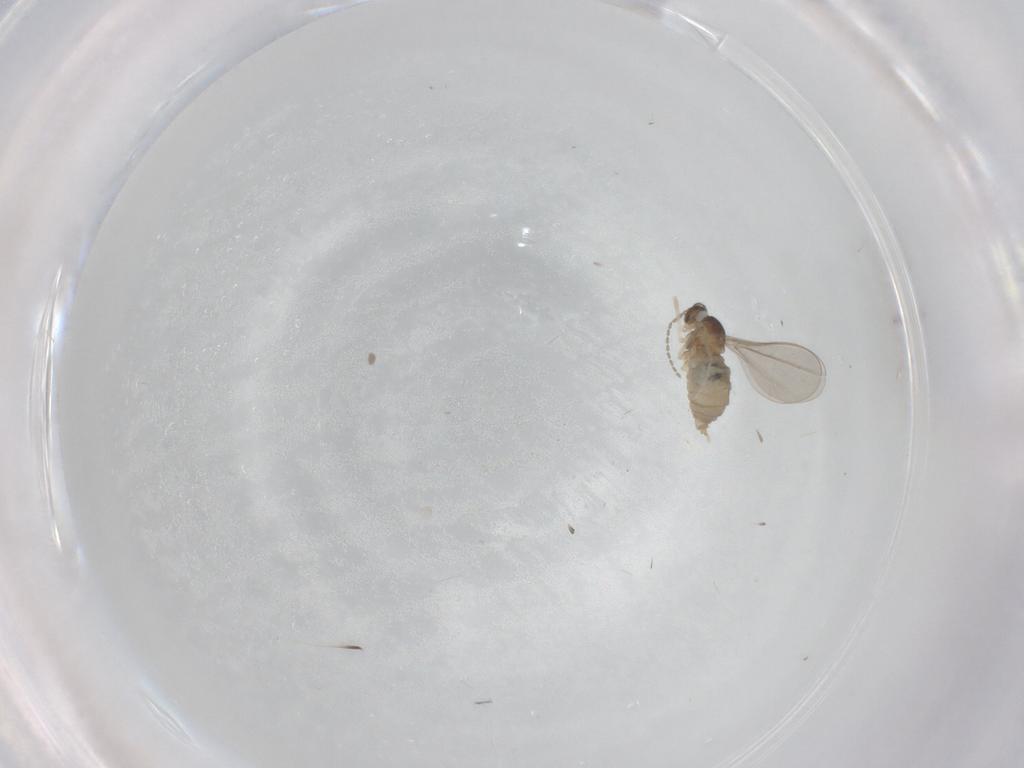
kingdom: Animalia
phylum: Arthropoda
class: Insecta
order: Diptera
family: Cecidomyiidae
